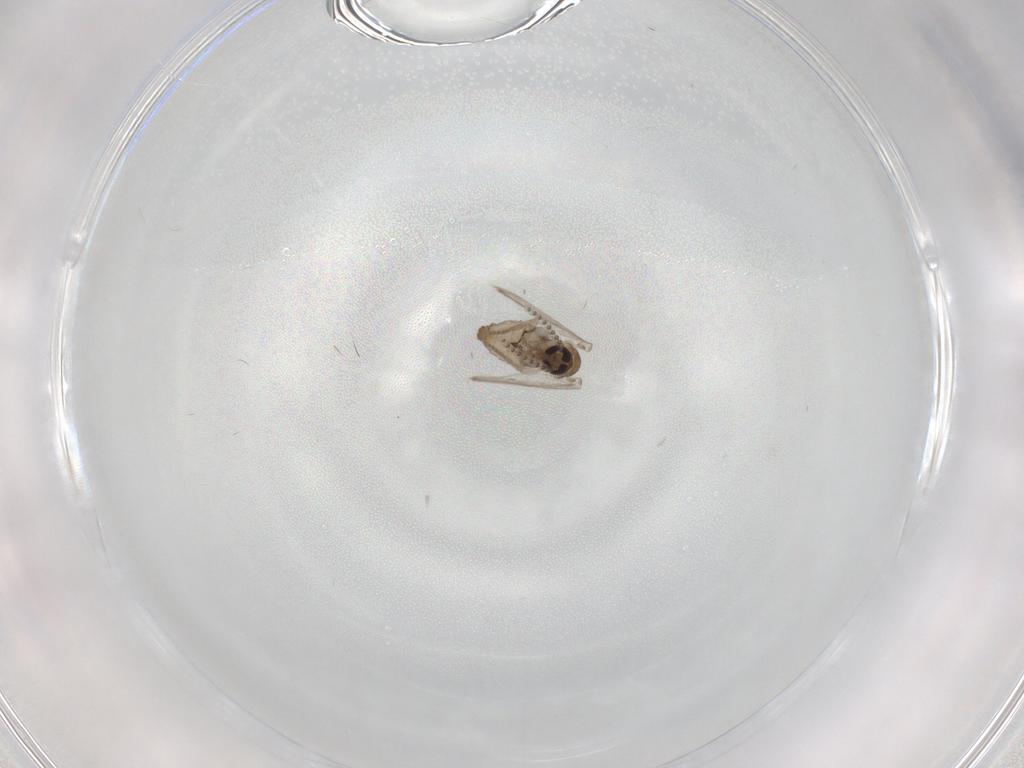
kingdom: Animalia
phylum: Arthropoda
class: Insecta
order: Diptera
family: Psychodidae
